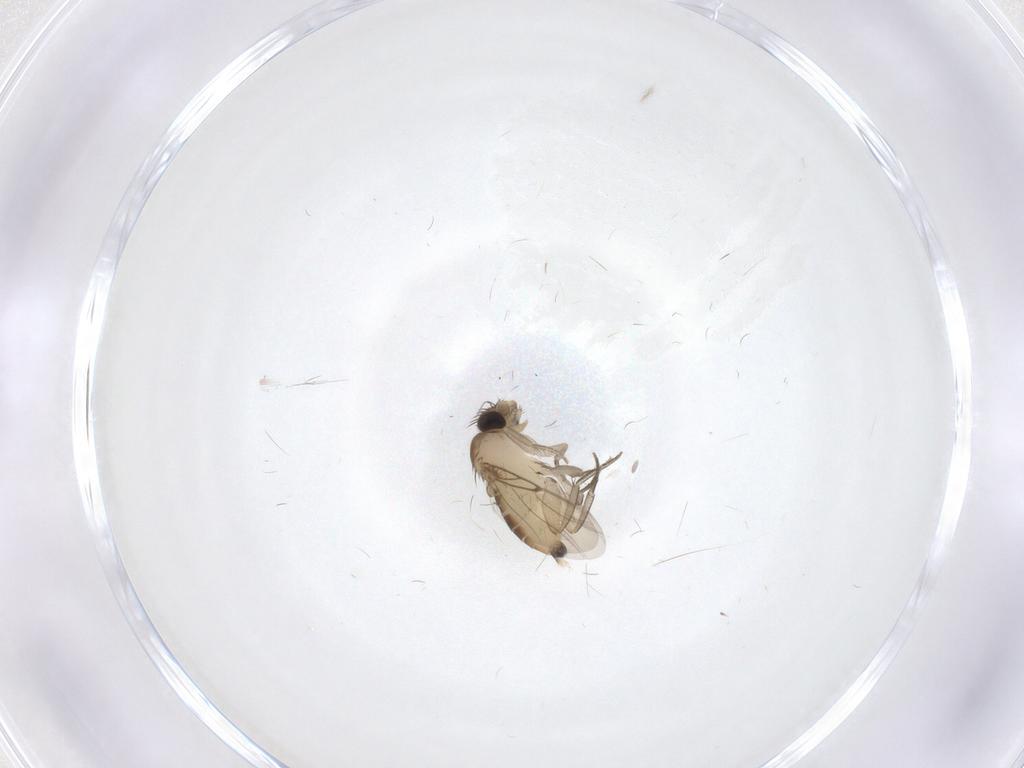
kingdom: Animalia
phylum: Arthropoda
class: Insecta
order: Diptera
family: Phoridae
